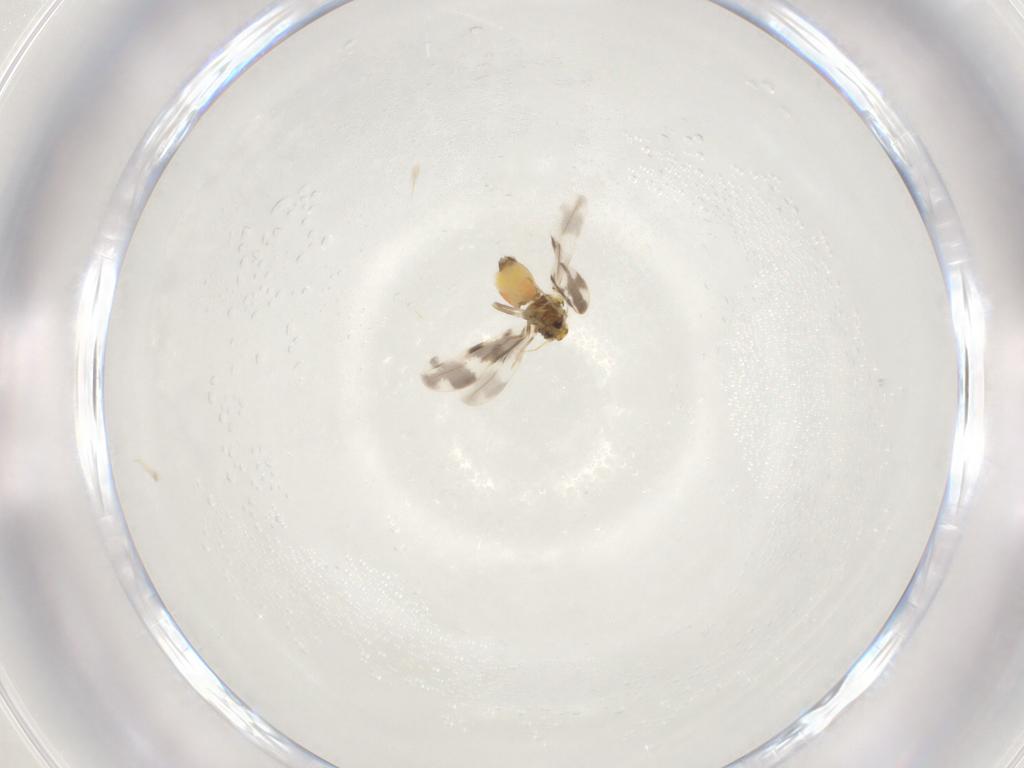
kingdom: Animalia
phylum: Arthropoda
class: Insecta
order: Hemiptera
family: Aleyrodidae
